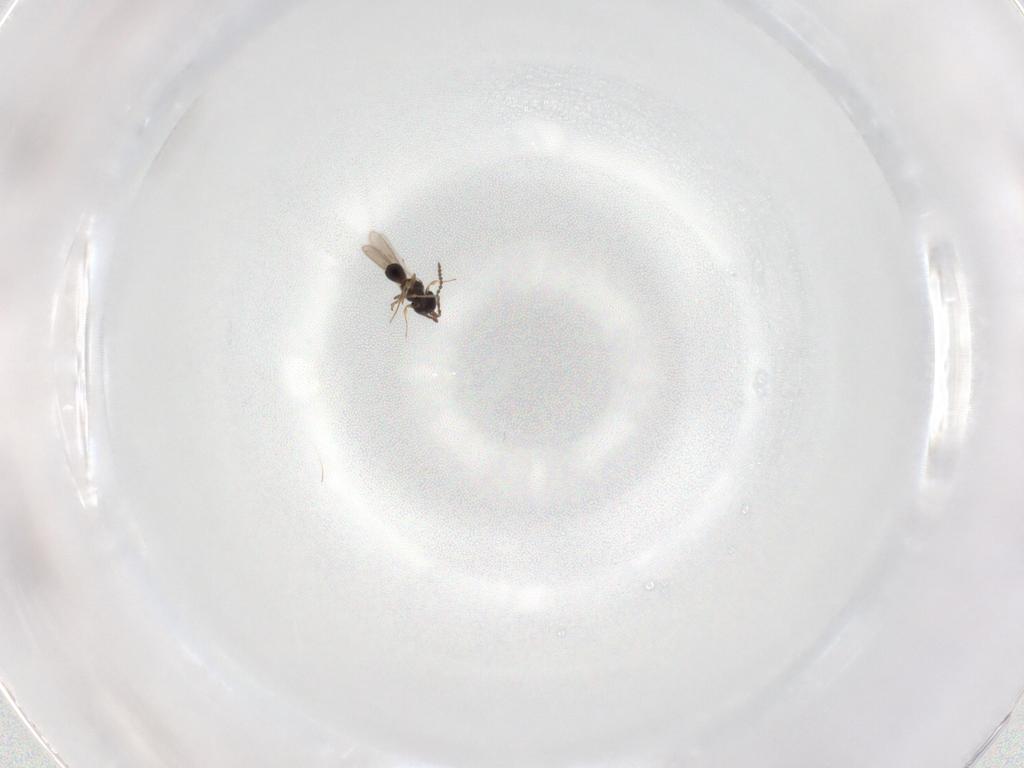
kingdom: Animalia
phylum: Arthropoda
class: Insecta
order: Hymenoptera
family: Scelionidae
